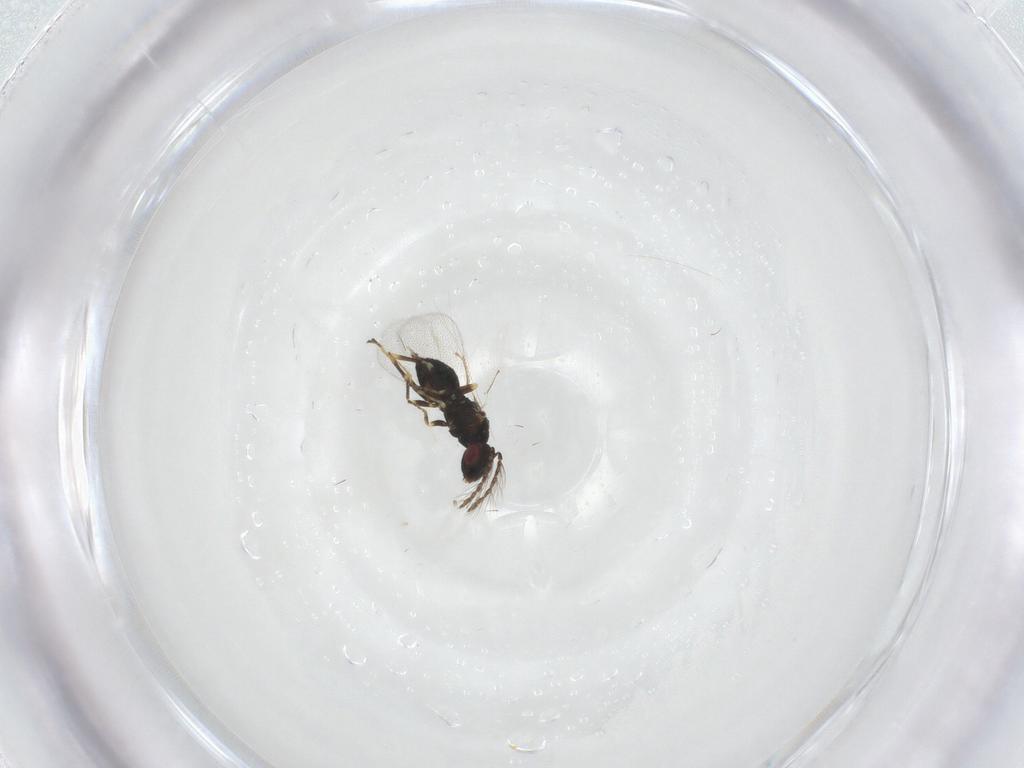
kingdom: Animalia
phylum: Arthropoda
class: Insecta
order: Hymenoptera
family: Eulophidae
